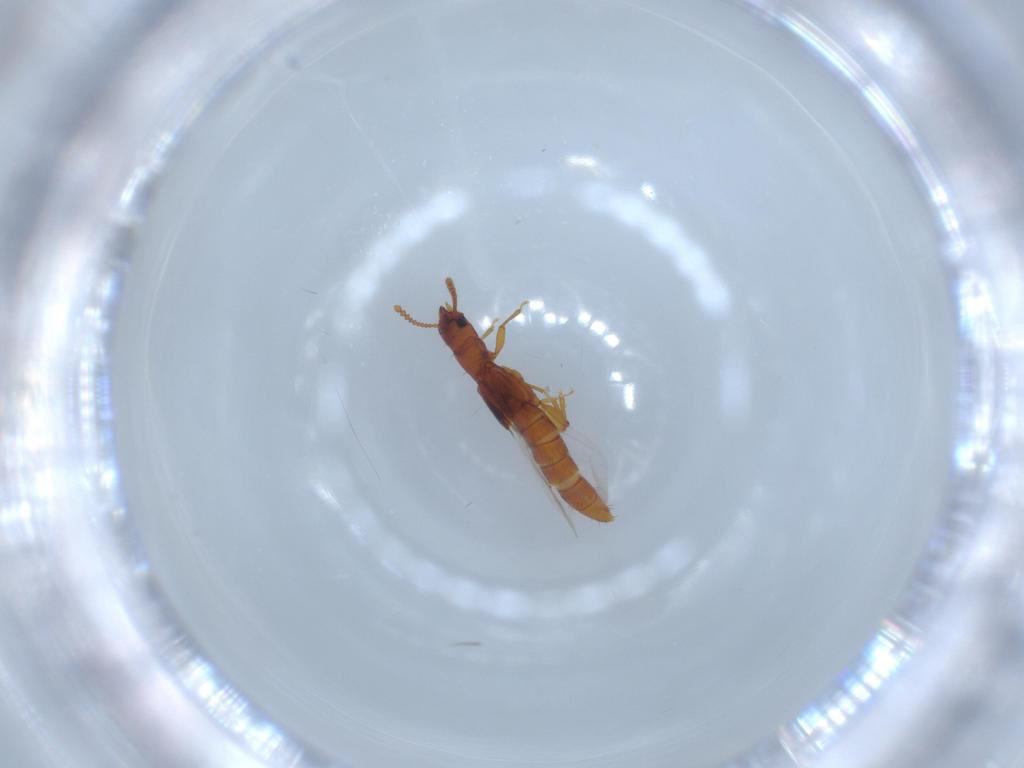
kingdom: Animalia
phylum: Arthropoda
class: Insecta
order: Coleoptera
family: Staphylinidae
